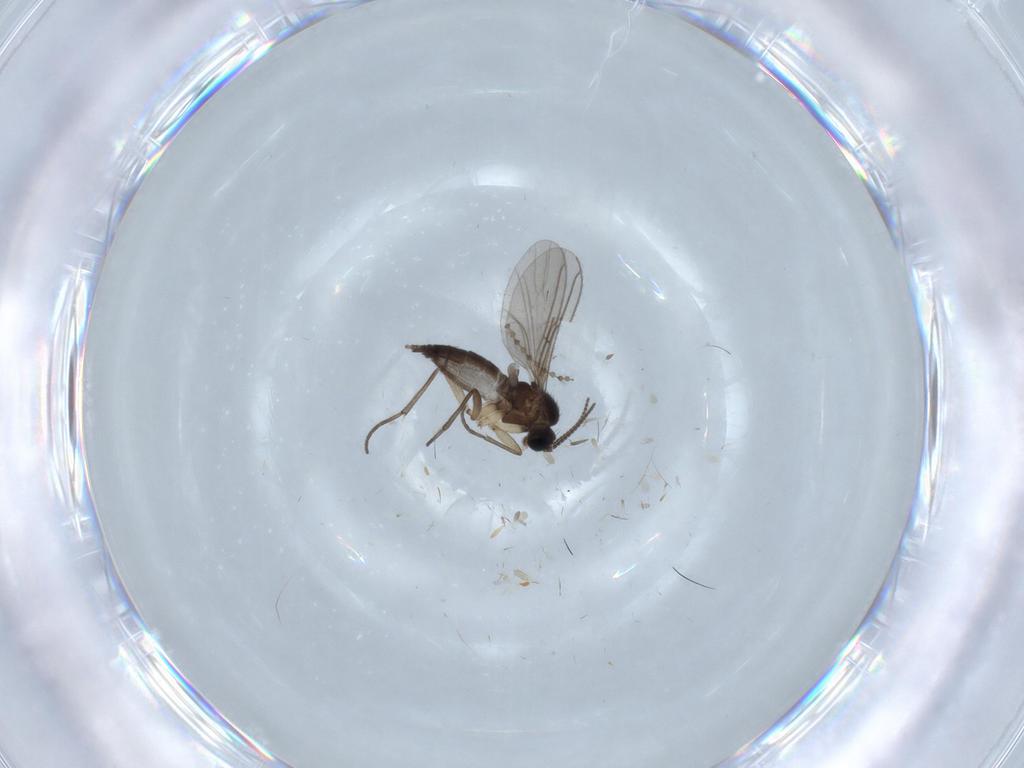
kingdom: Animalia
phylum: Arthropoda
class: Insecta
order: Diptera
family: Sciaridae
